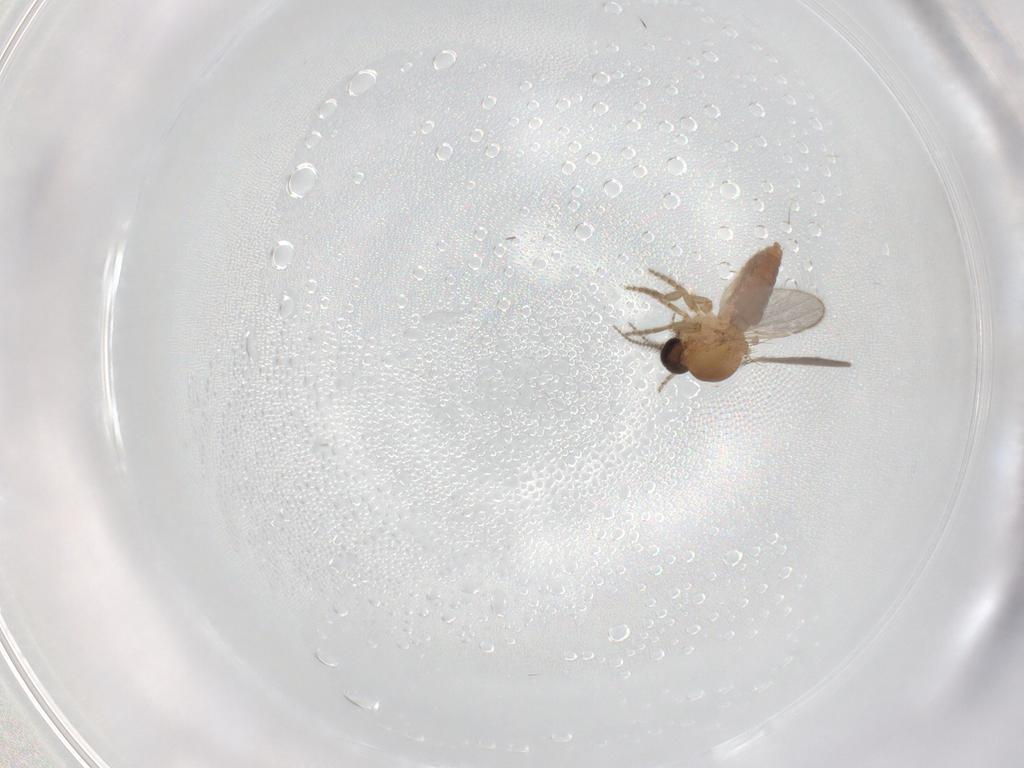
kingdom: Animalia
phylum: Arthropoda
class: Insecta
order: Diptera
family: Ceratopogonidae
